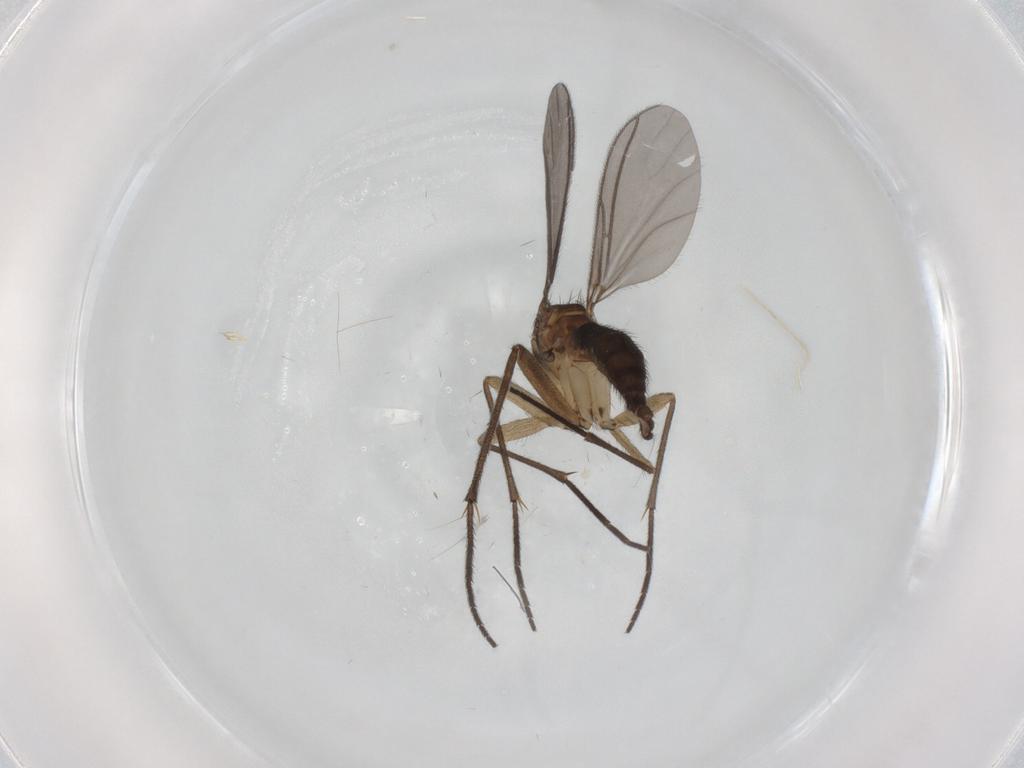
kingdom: Animalia
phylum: Arthropoda
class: Insecta
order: Diptera
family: Sciaridae
